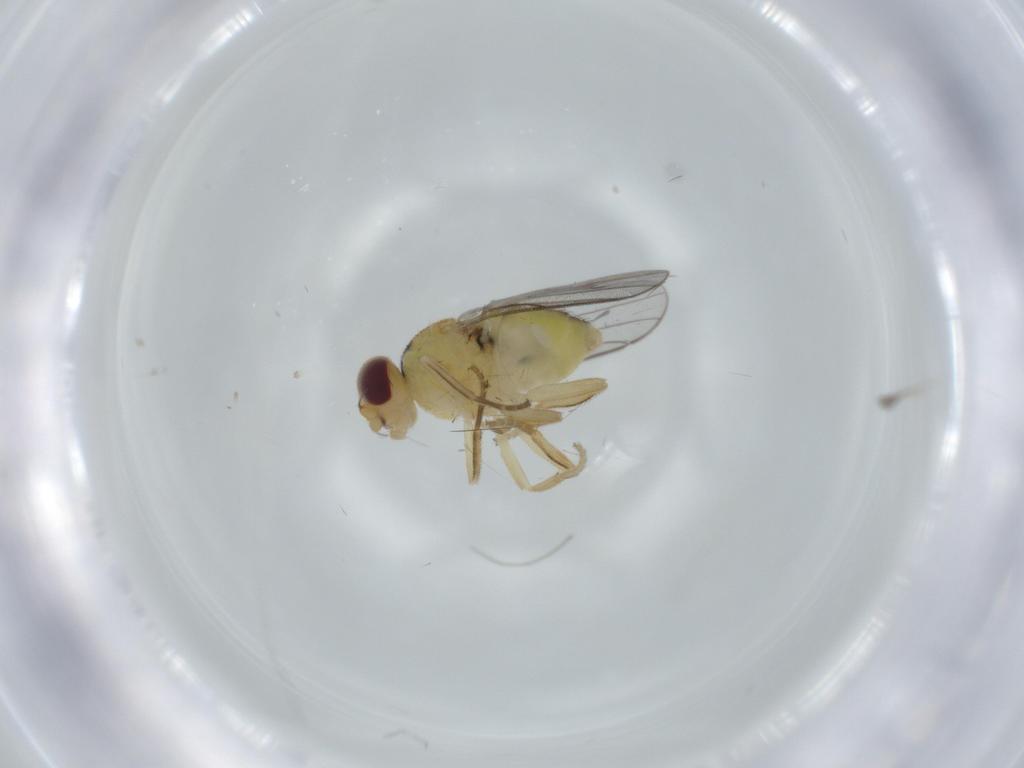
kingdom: Animalia
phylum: Arthropoda
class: Insecta
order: Diptera
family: Chloropidae
